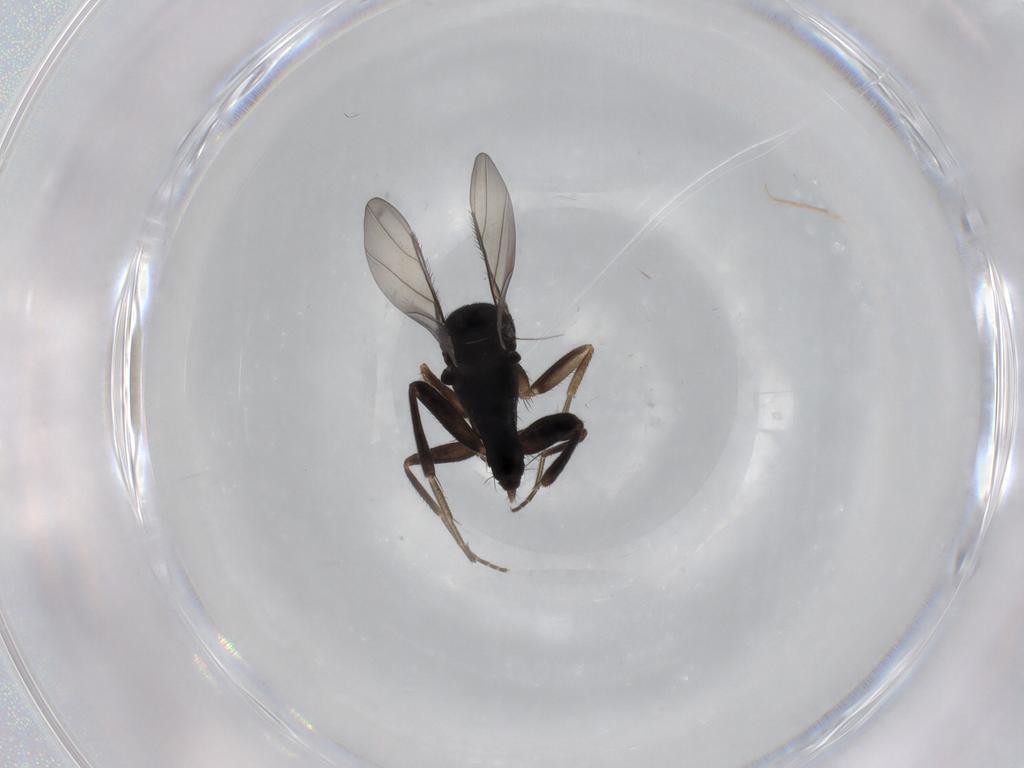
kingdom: Animalia
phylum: Arthropoda
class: Insecta
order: Diptera
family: Phoridae
